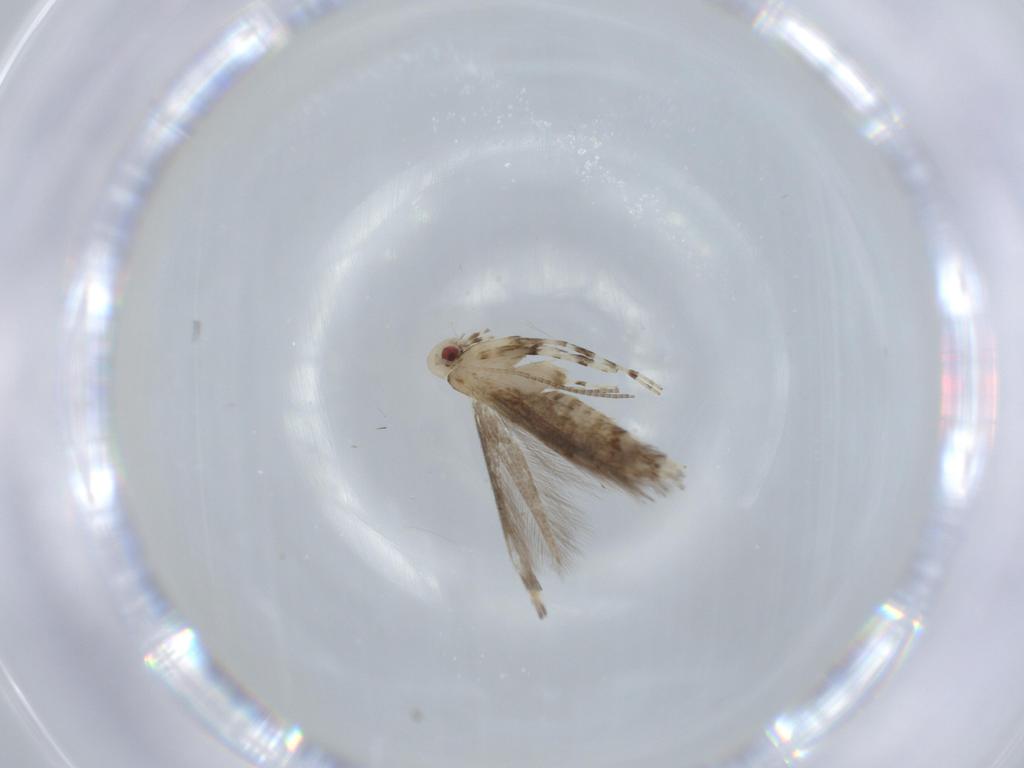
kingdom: Animalia
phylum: Arthropoda
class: Insecta
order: Lepidoptera
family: Gracillariidae
